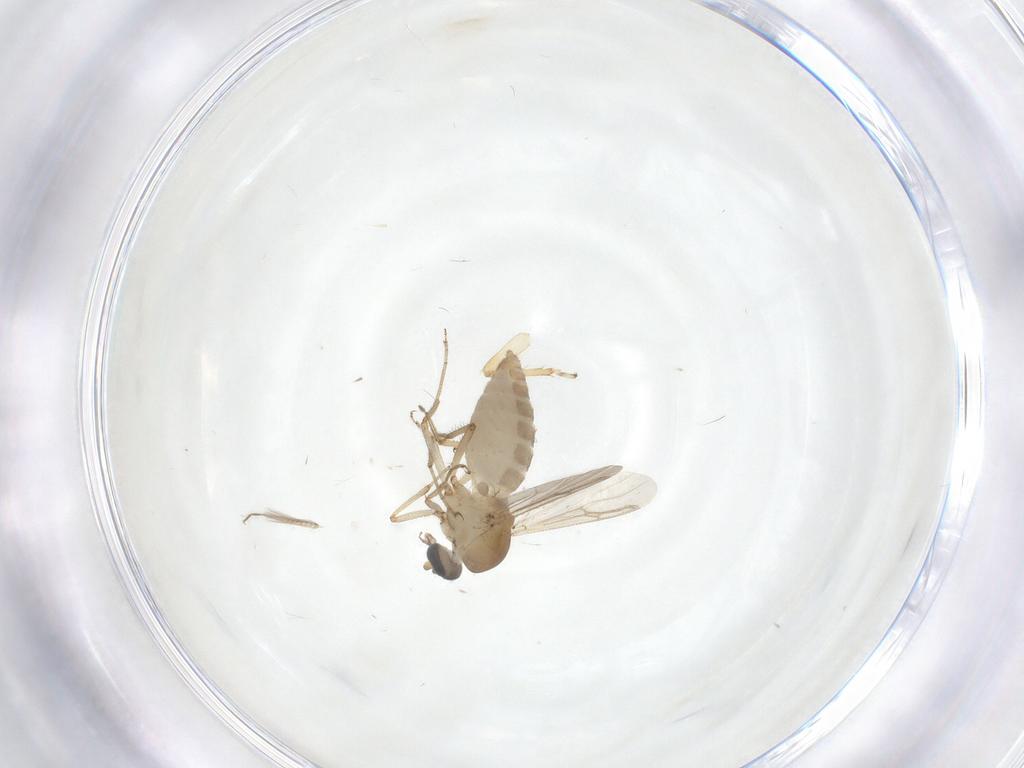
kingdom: Animalia
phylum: Arthropoda
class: Insecta
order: Diptera
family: Ceratopogonidae
